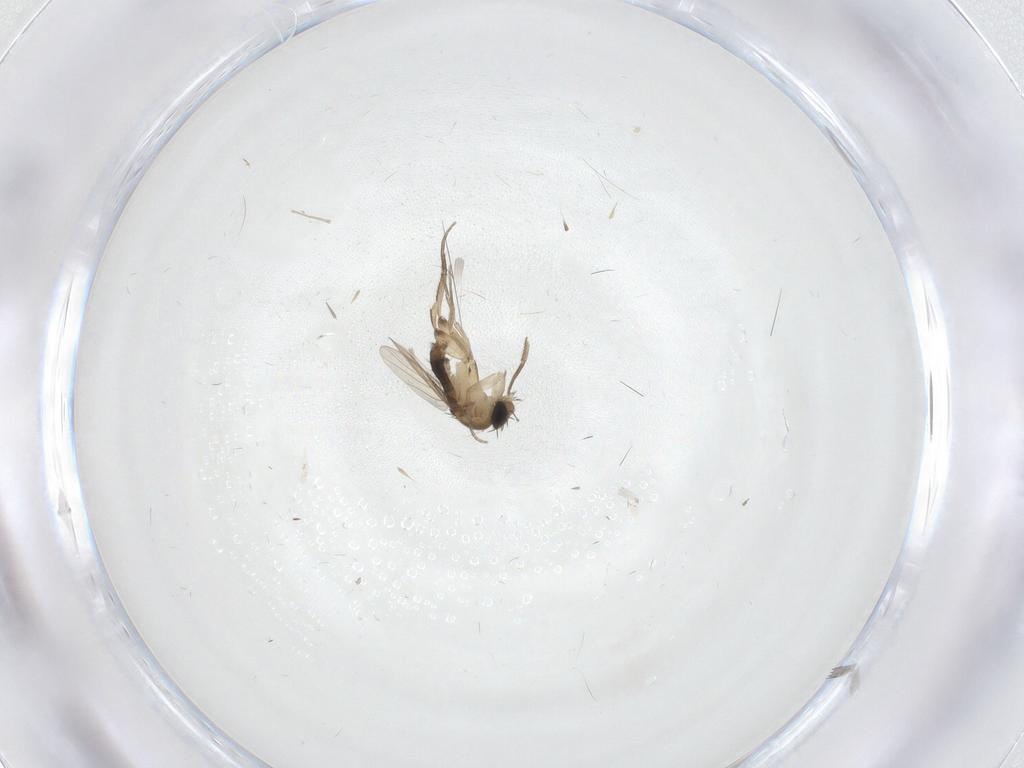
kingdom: Animalia
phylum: Arthropoda
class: Insecta
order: Diptera
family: Phoridae
